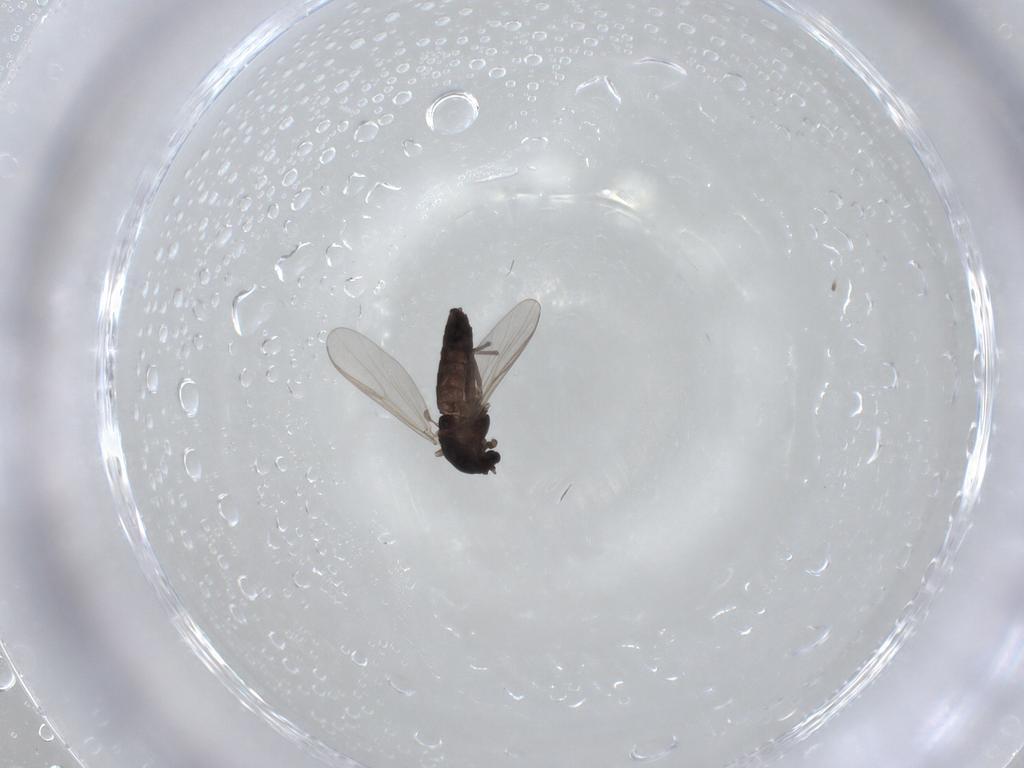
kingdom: Animalia
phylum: Arthropoda
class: Insecta
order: Diptera
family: Chironomidae
